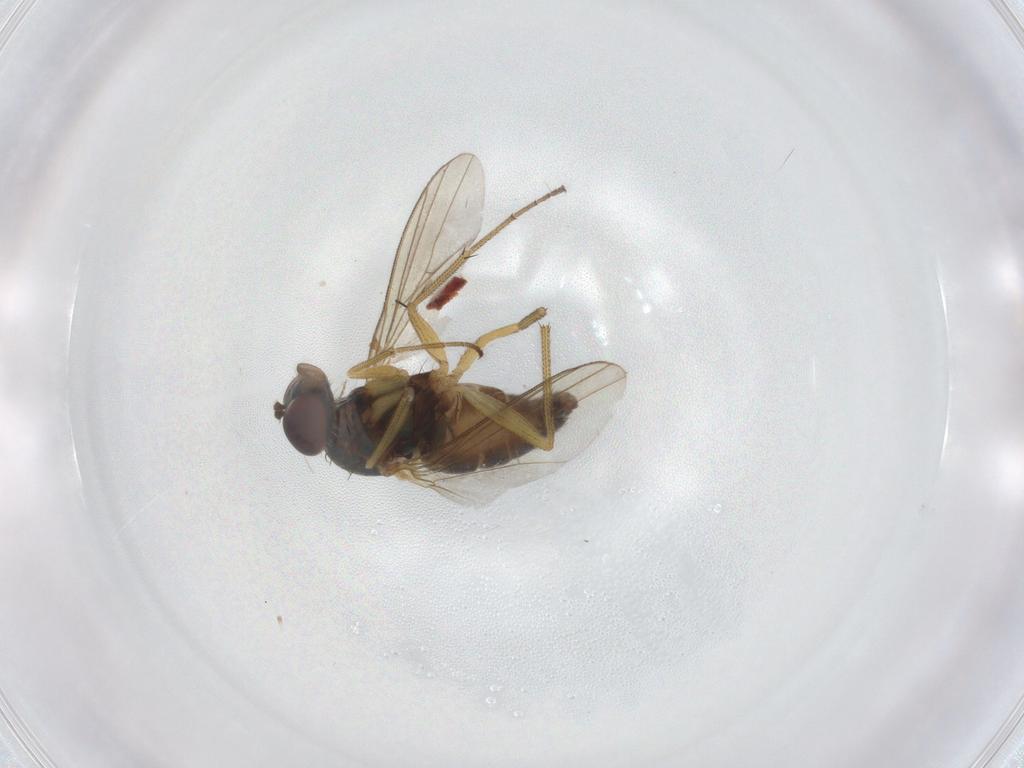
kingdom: Animalia
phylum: Arthropoda
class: Insecta
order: Diptera
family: Dolichopodidae
